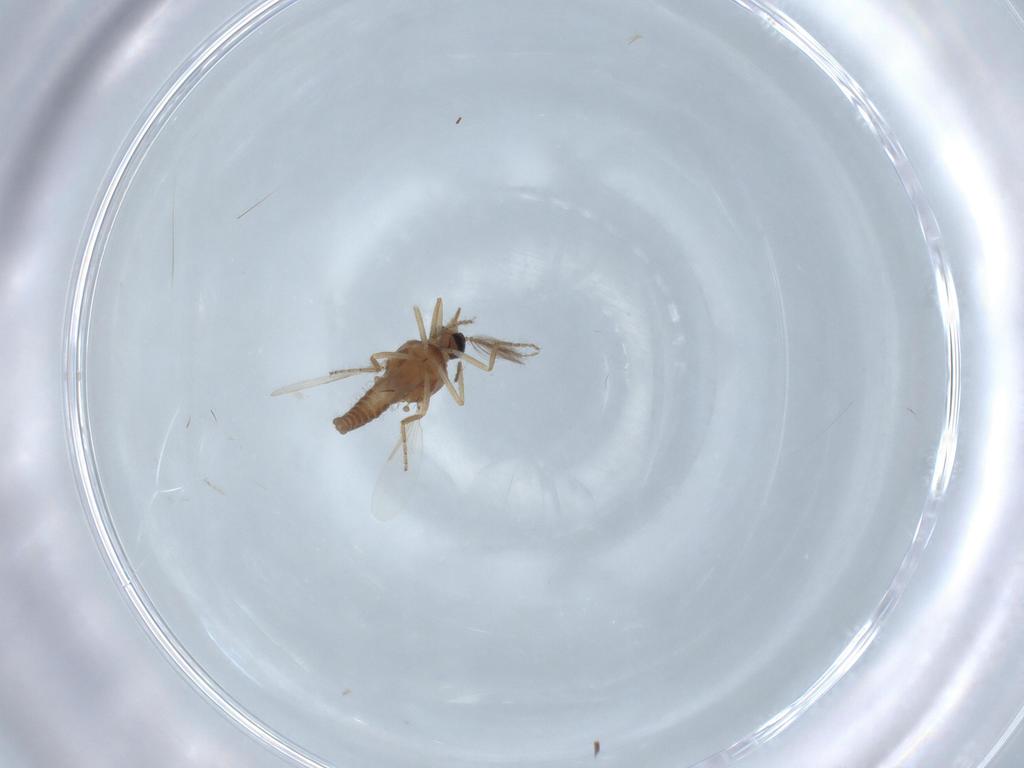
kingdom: Animalia
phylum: Arthropoda
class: Insecta
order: Diptera
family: Ceratopogonidae
